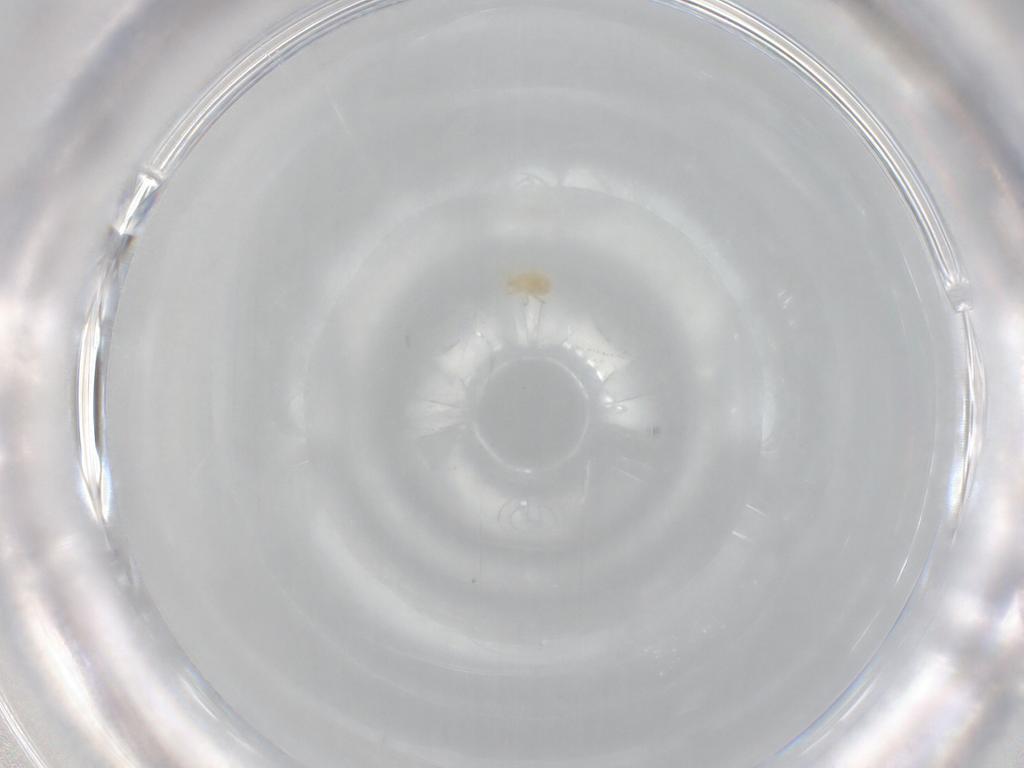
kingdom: Animalia
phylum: Arthropoda
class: Arachnida
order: Mesostigmata
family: Phytoseiidae
